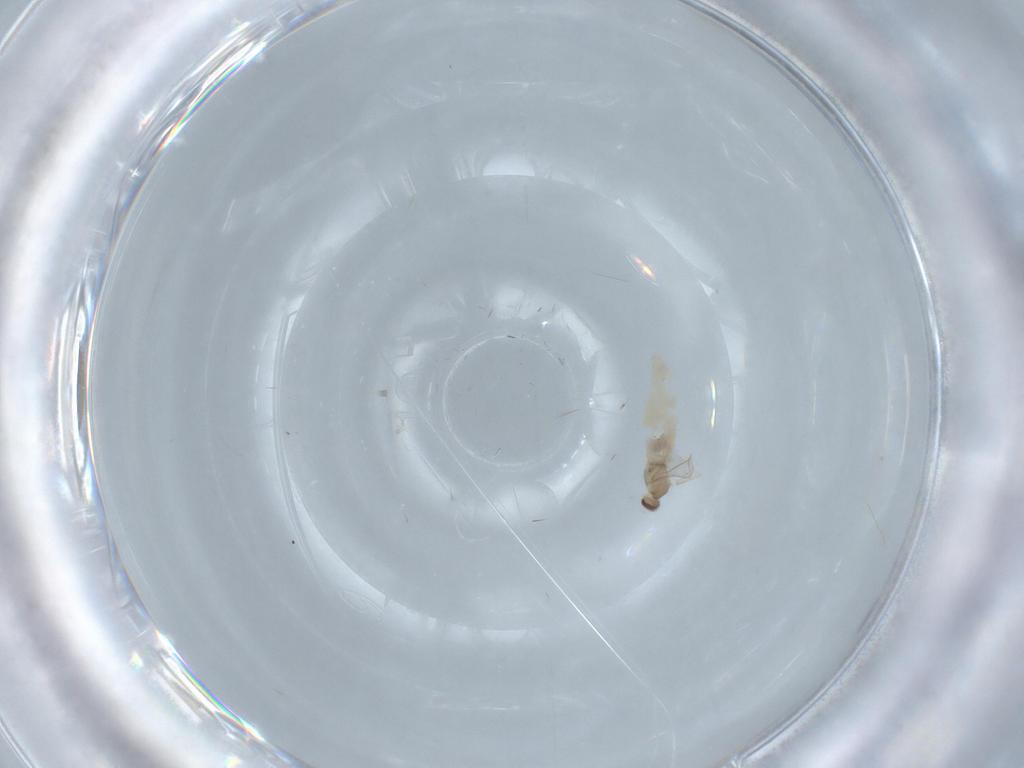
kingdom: Animalia
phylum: Arthropoda
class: Insecta
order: Diptera
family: Cecidomyiidae
